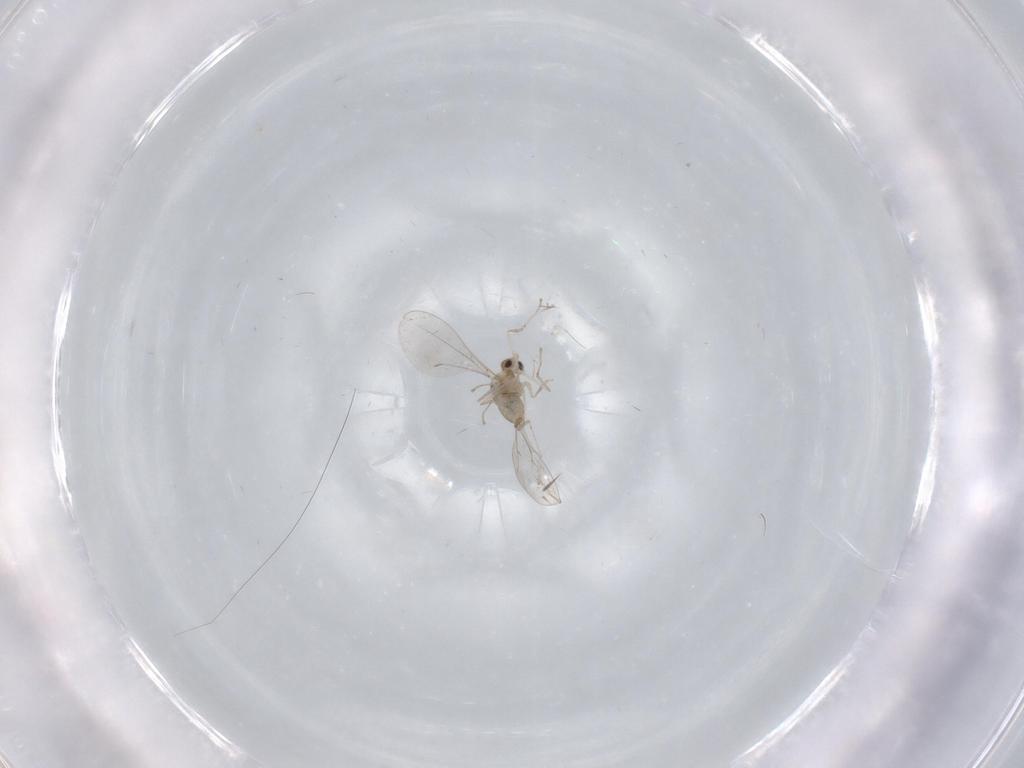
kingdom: Animalia
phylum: Arthropoda
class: Insecta
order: Diptera
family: Cecidomyiidae
